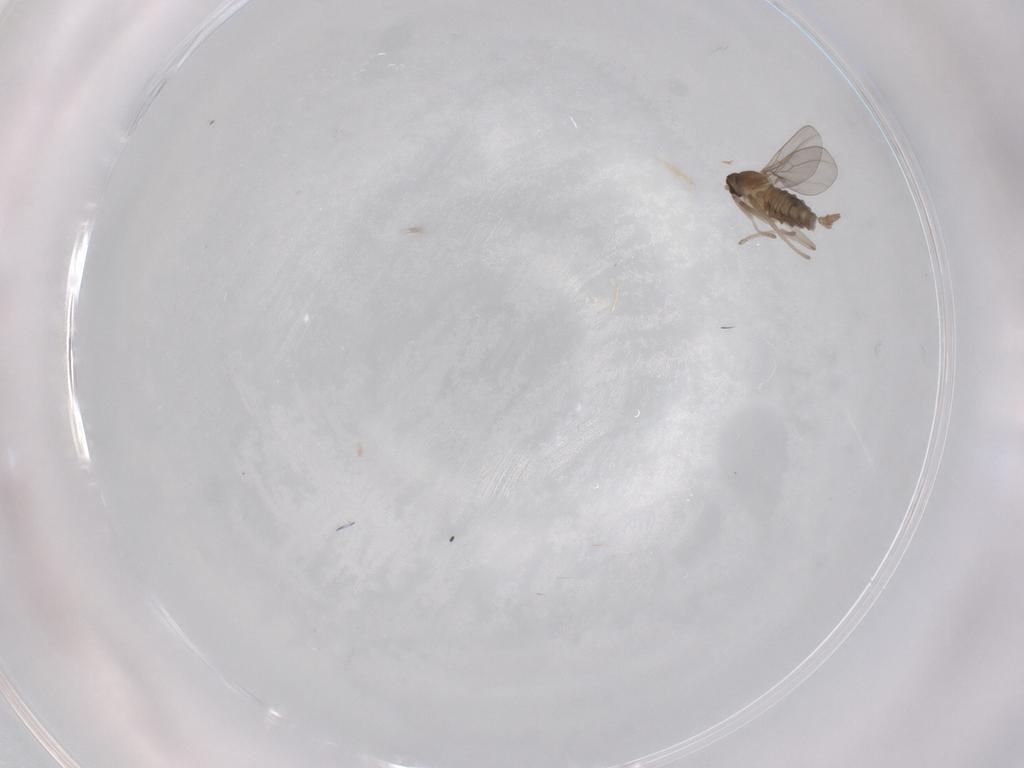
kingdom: Animalia
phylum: Arthropoda
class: Insecta
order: Diptera
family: Cecidomyiidae
